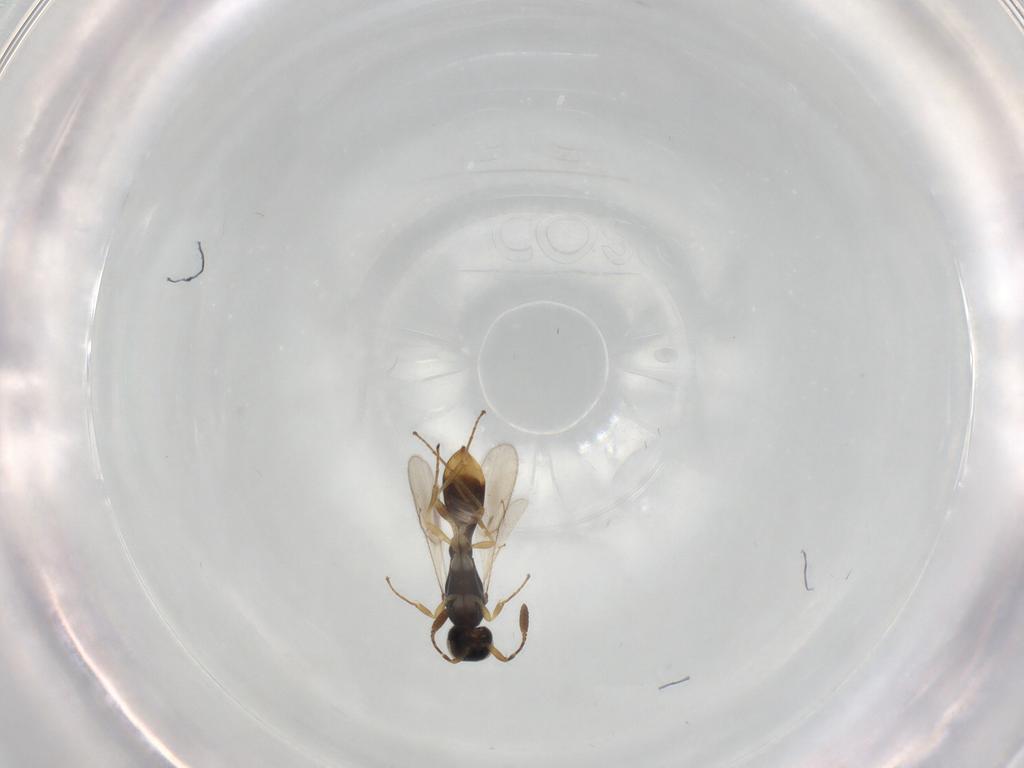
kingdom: Animalia
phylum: Arthropoda
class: Insecta
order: Hymenoptera
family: Scelionidae
